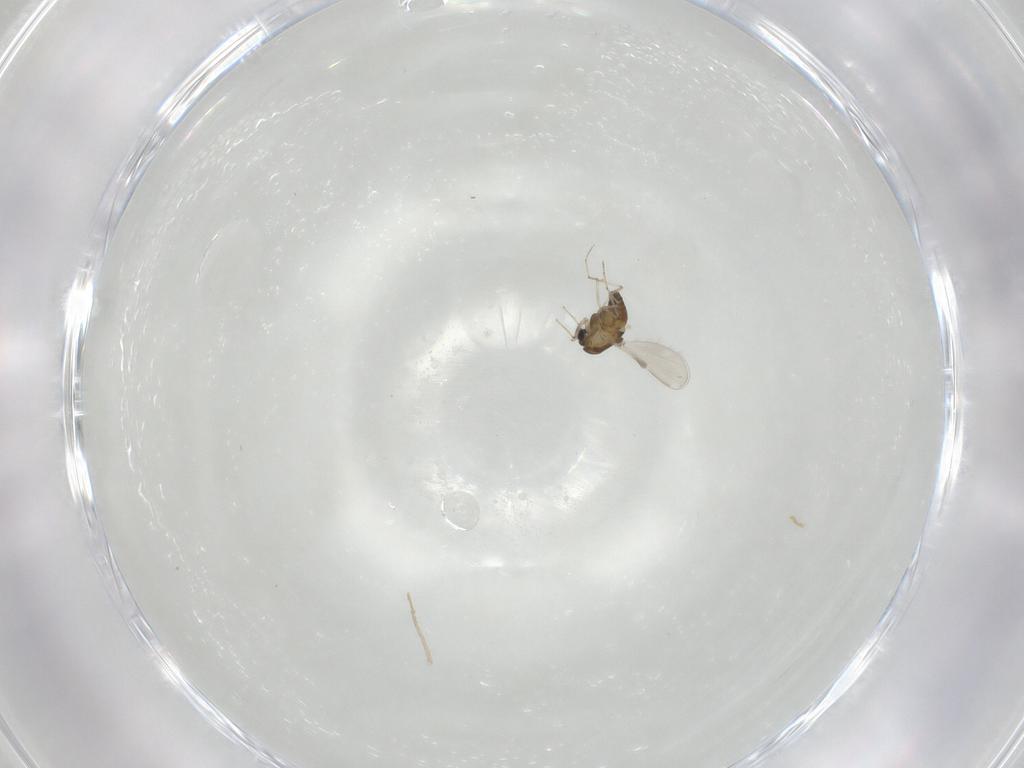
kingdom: Animalia
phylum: Arthropoda
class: Insecta
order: Diptera
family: Chironomidae
